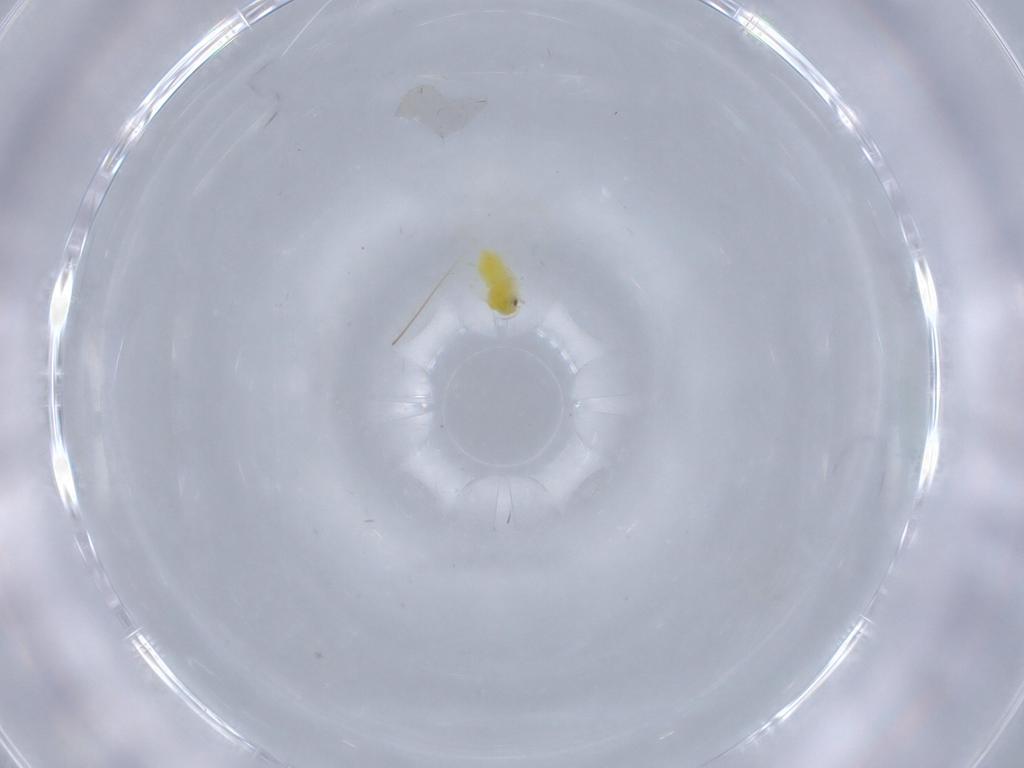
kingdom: Animalia
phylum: Arthropoda
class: Insecta
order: Hemiptera
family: Aleyrodidae
